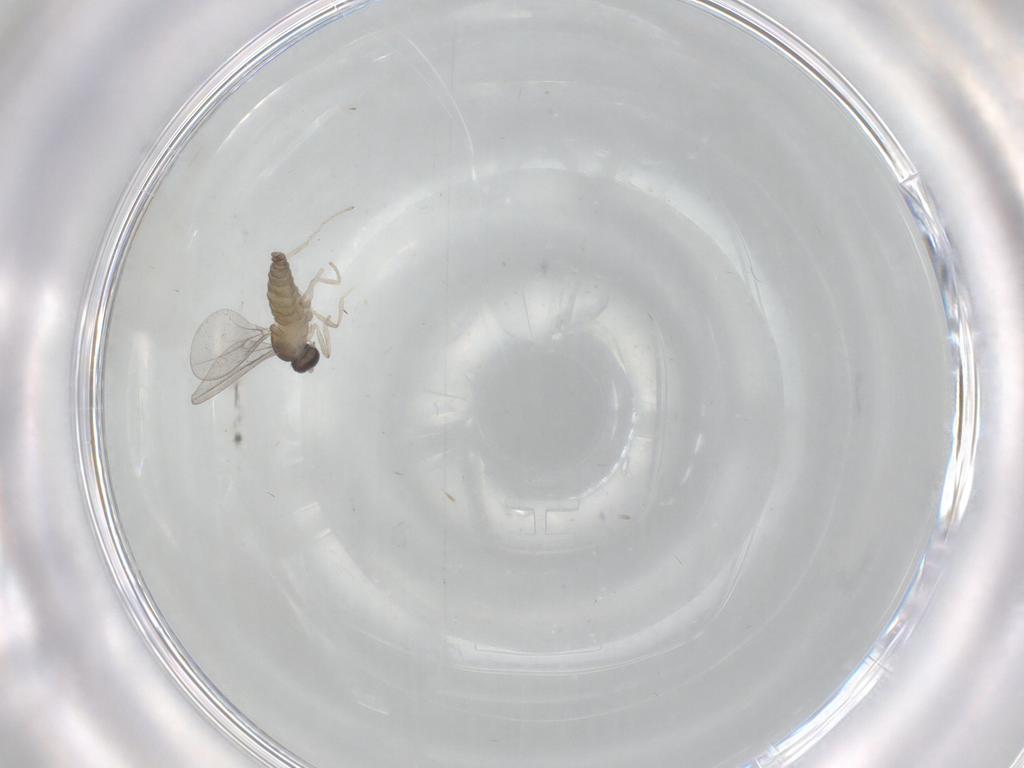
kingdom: Animalia
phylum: Arthropoda
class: Insecta
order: Diptera
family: Cecidomyiidae
